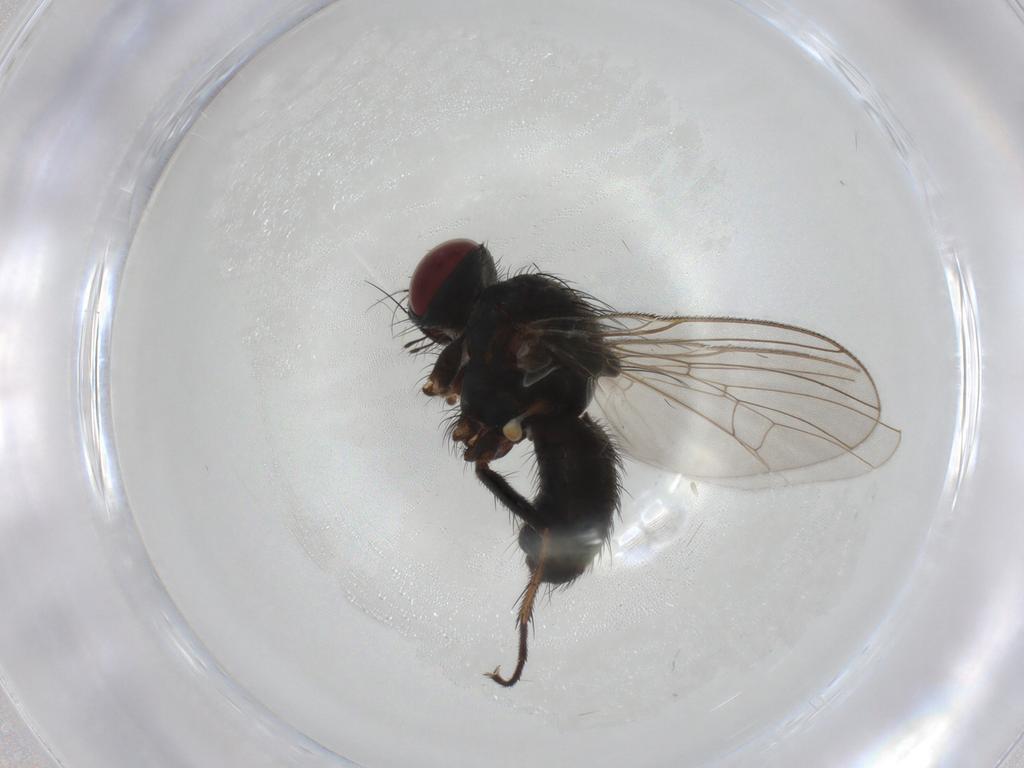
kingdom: Animalia
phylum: Arthropoda
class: Insecta
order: Diptera
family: Muscidae
